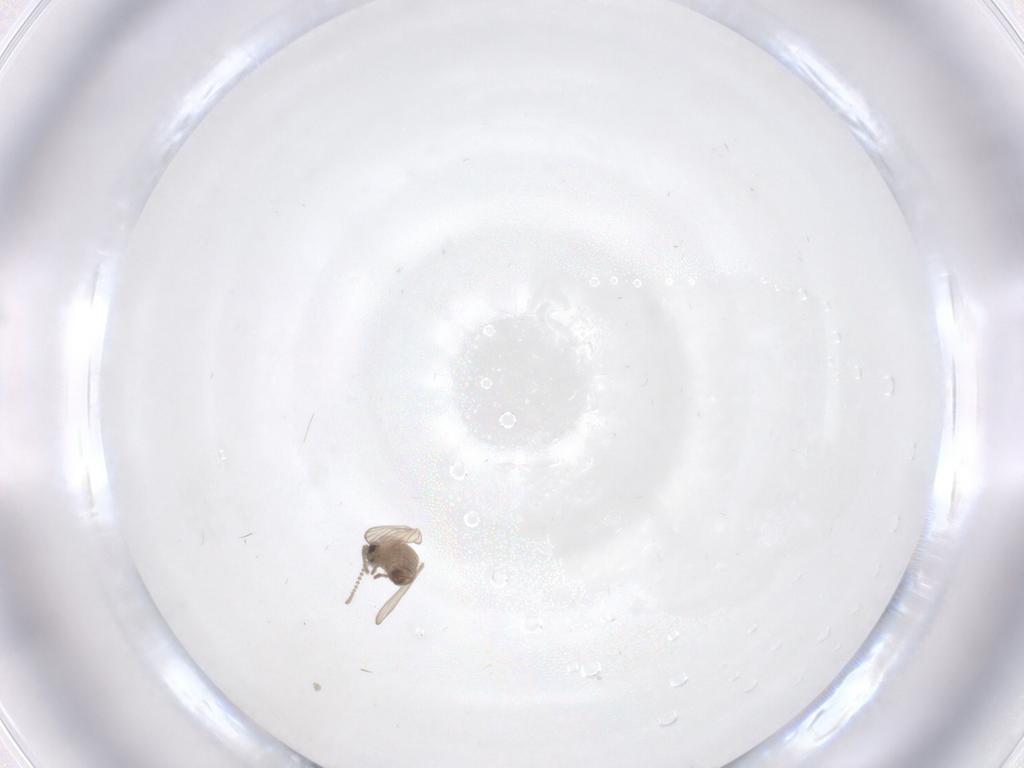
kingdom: Animalia
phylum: Arthropoda
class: Insecta
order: Diptera
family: Psychodidae
